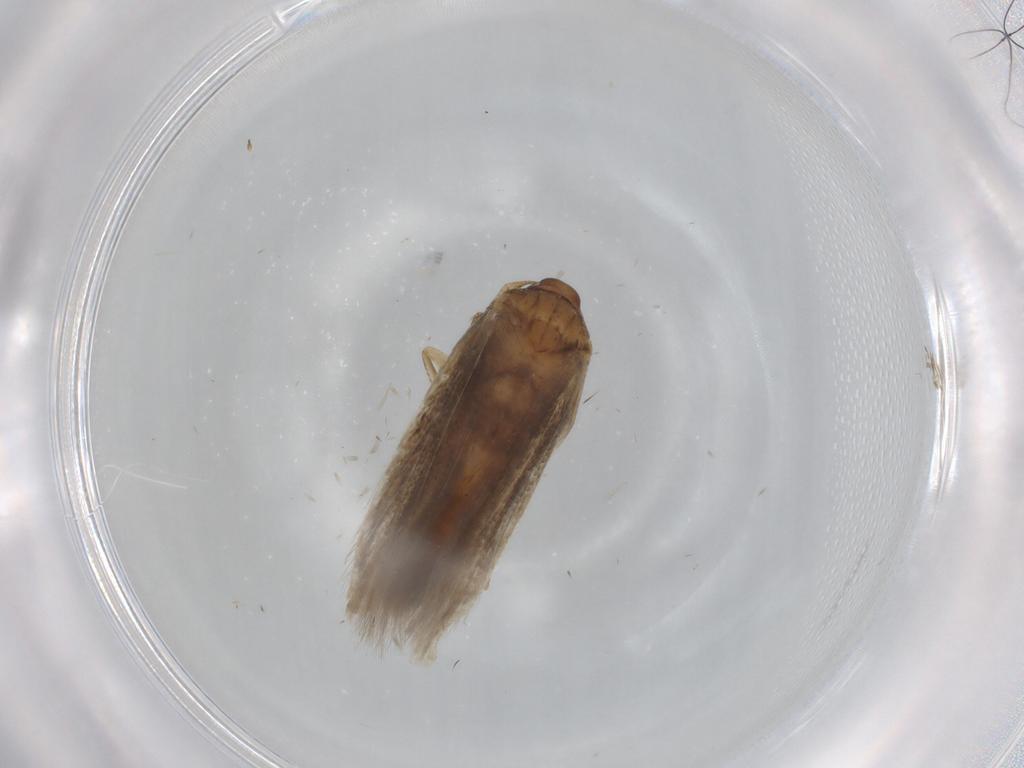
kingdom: Animalia
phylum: Arthropoda
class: Insecta
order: Lepidoptera
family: Cosmopterigidae
